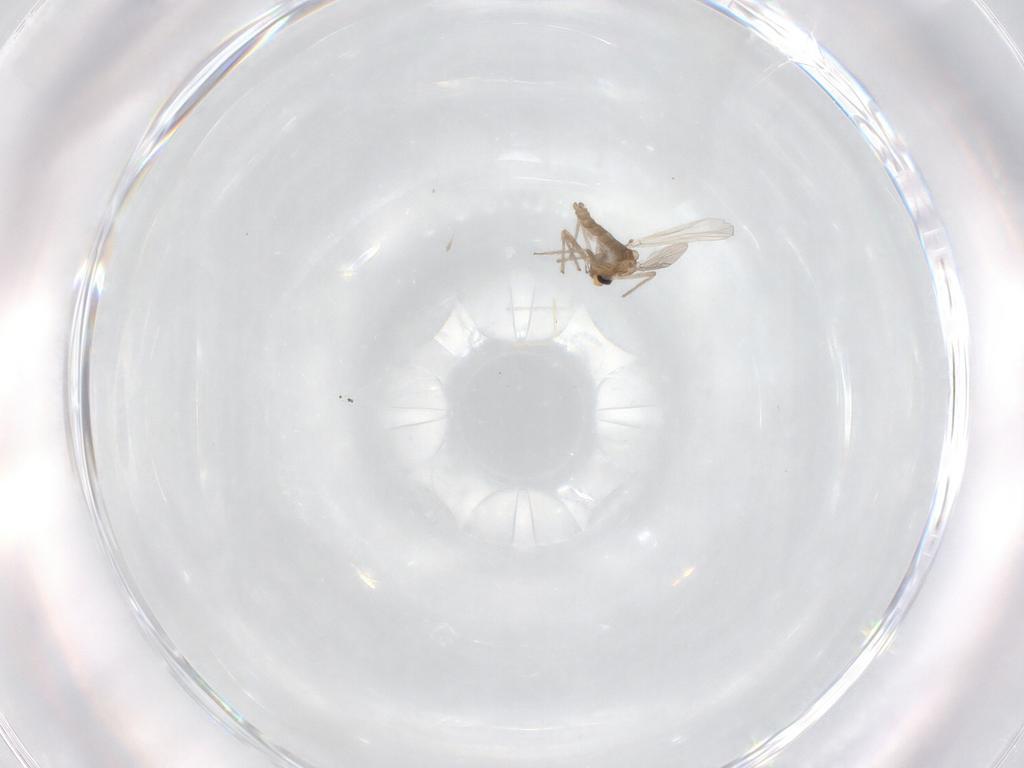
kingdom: Animalia
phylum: Arthropoda
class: Insecta
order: Diptera
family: Chironomidae
